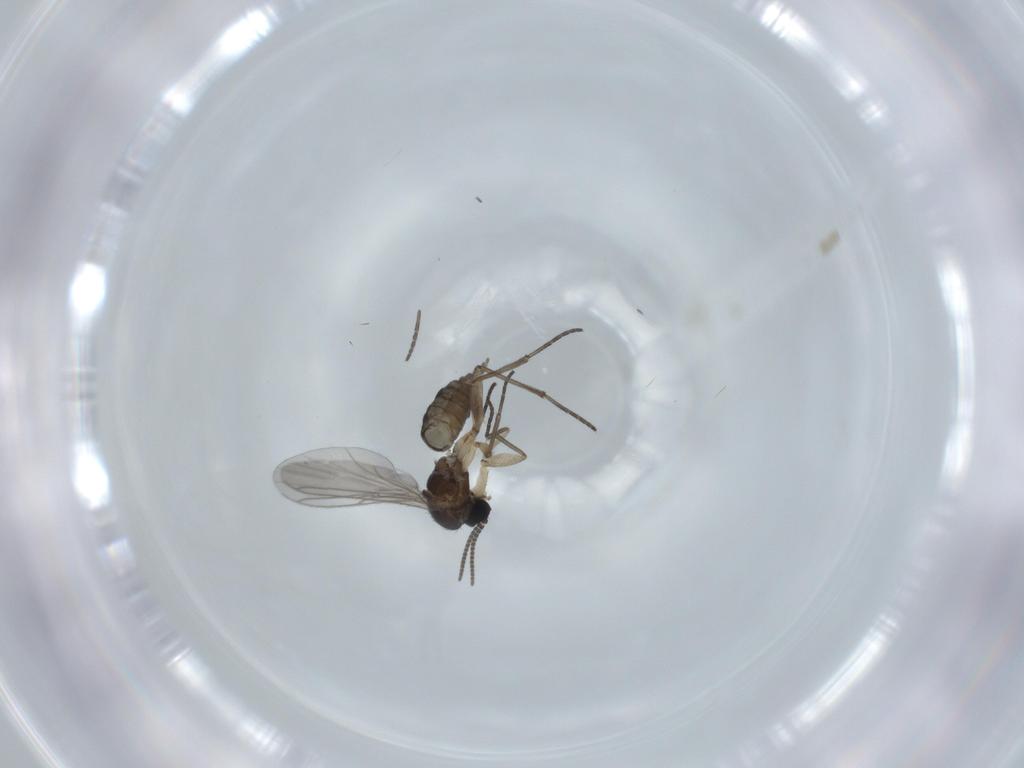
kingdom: Animalia
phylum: Arthropoda
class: Insecta
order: Diptera
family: Sciaridae
